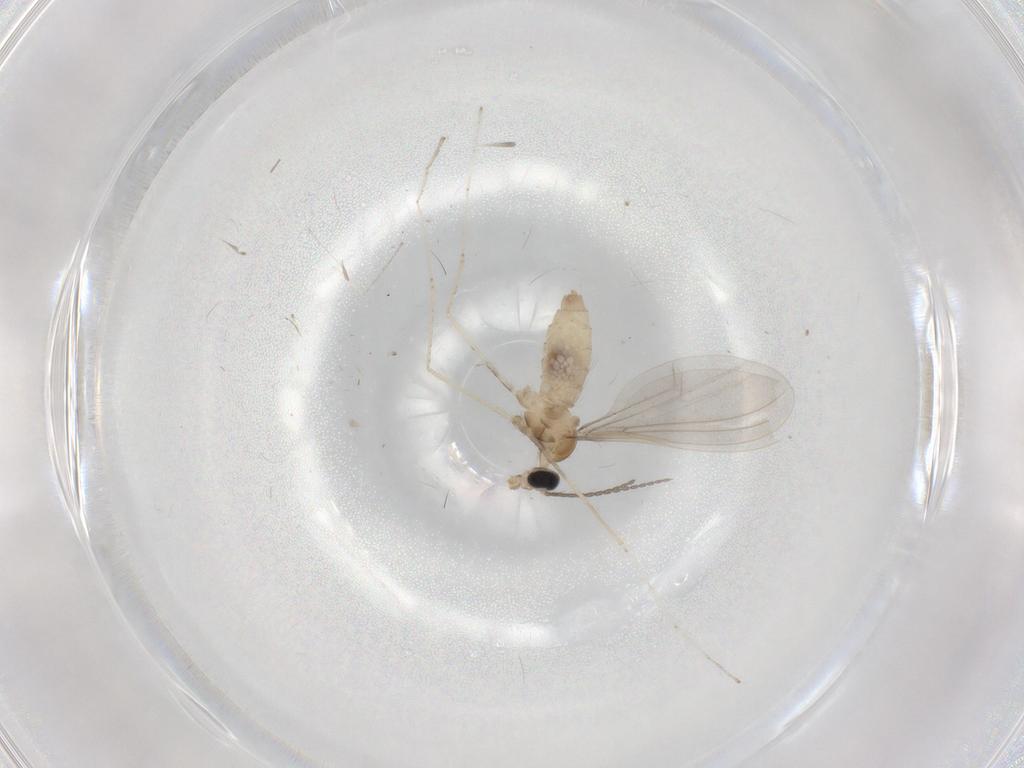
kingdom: Animalia
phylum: Arthropoda
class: Insecta
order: Diptera
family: Cecidomyiidae
